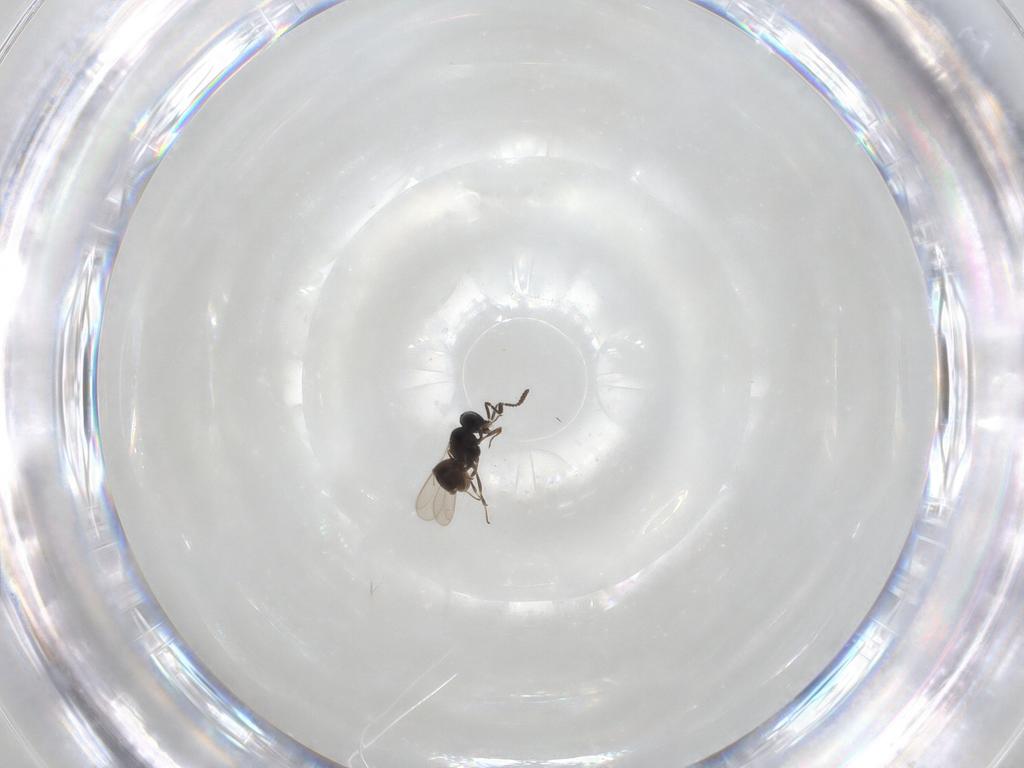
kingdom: Animalia
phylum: Arthropoda
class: Insecta
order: Hymenoptera
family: Scelionidae
